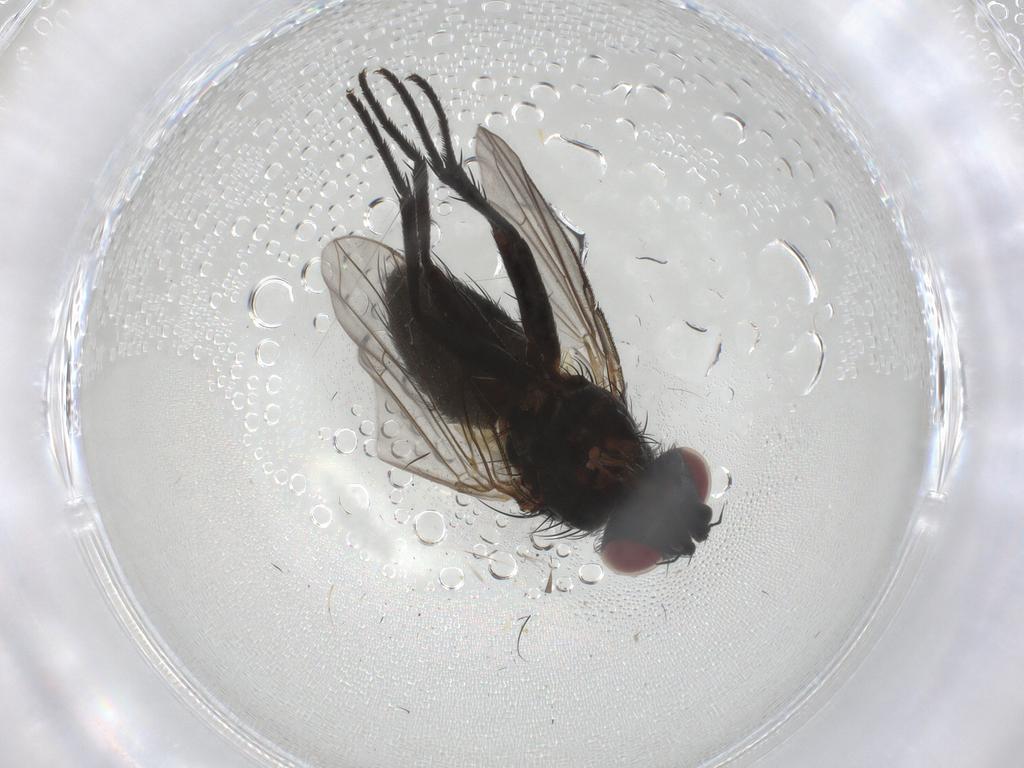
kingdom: Animalia
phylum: Arthropoda
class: Insecta
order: Diptera
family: Tachinidae
